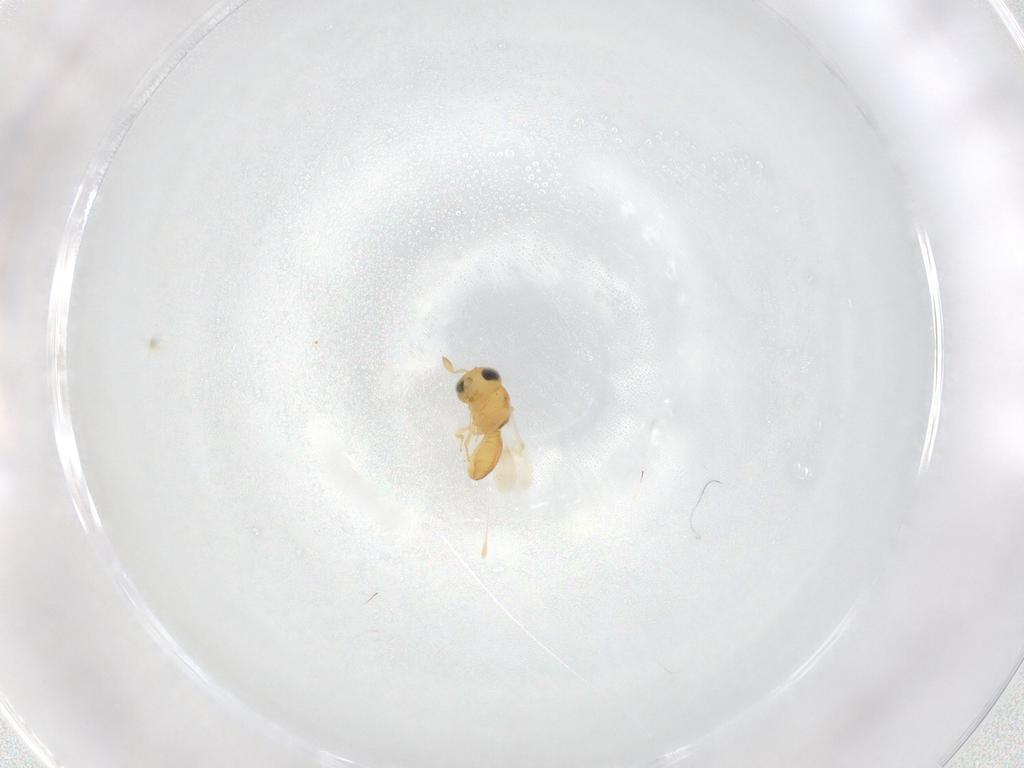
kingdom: Animalia
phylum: Arthropoda
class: Insecta
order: Hymenoptera
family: Scelionidae
